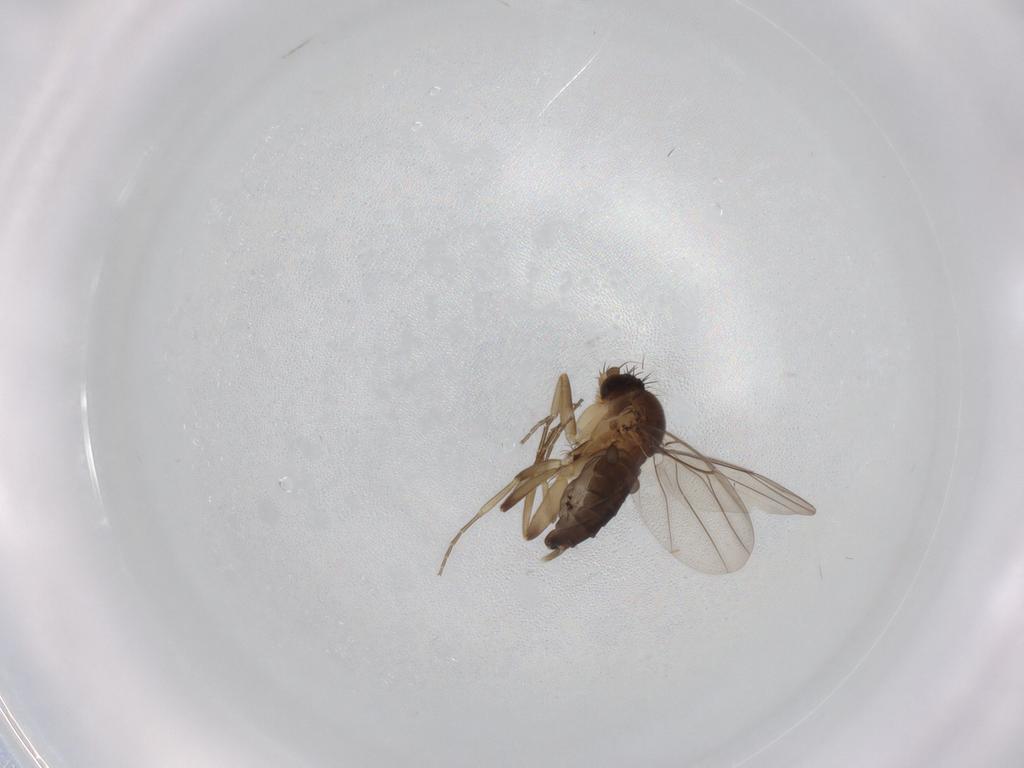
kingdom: Animalia
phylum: Arthropoda
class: Insecta
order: Diptera
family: Phoridae
